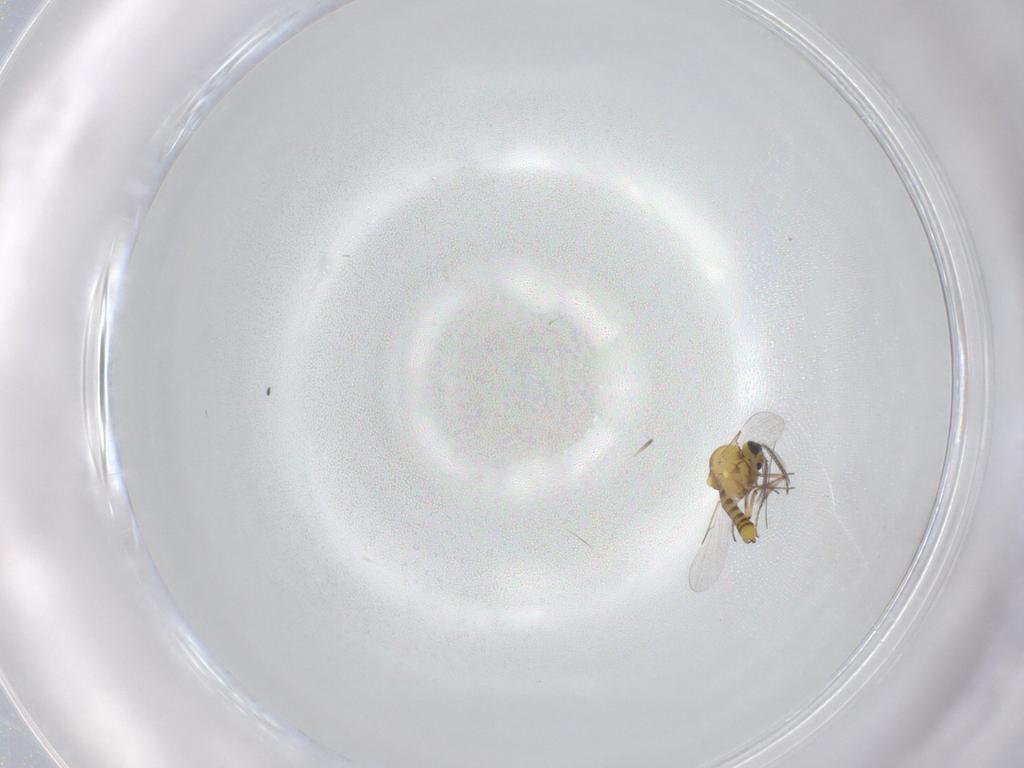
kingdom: Animalia
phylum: Arthropoda
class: Insecta
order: Diptera
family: Ceratopogonidae
